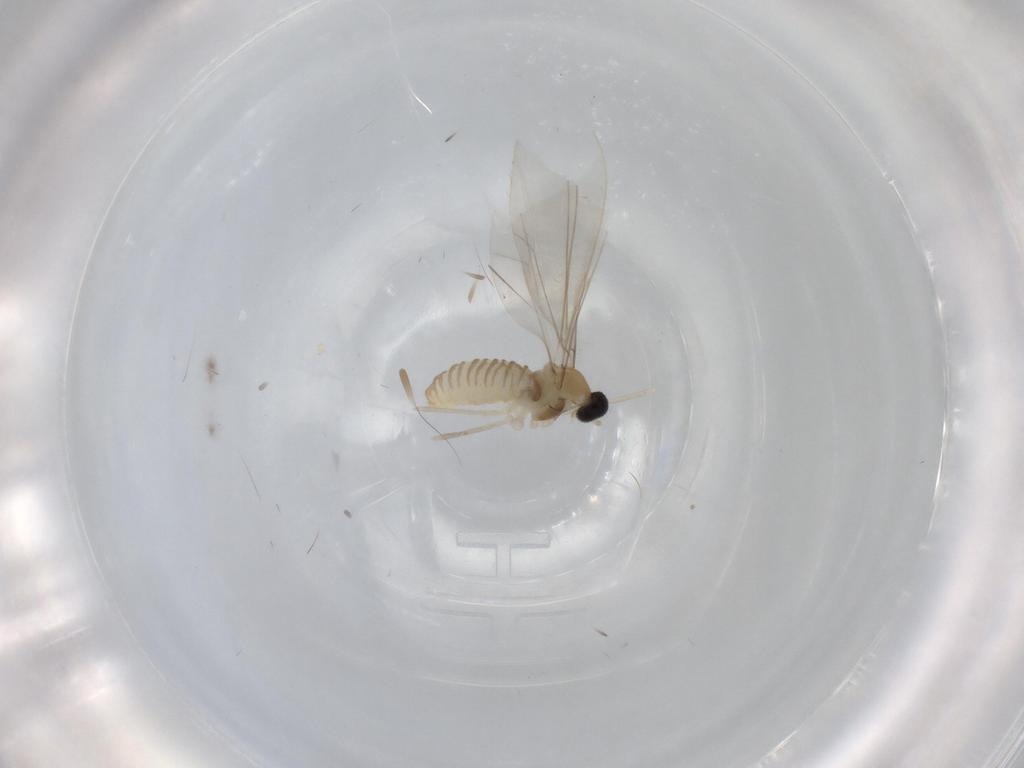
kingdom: Animalia
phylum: Arthropoda
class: Insecta
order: Diptera
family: Cecidomyiidae
